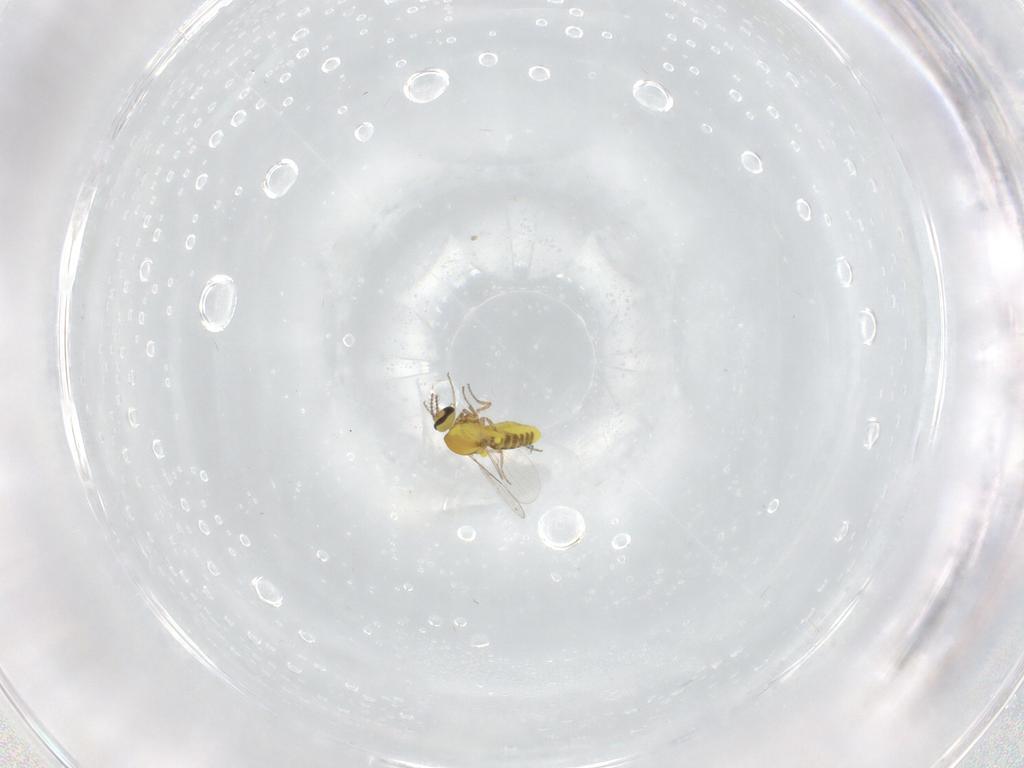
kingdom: Animalia
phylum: Arthropoda
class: Insecta
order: Diptera
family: Ceratopogonidae
